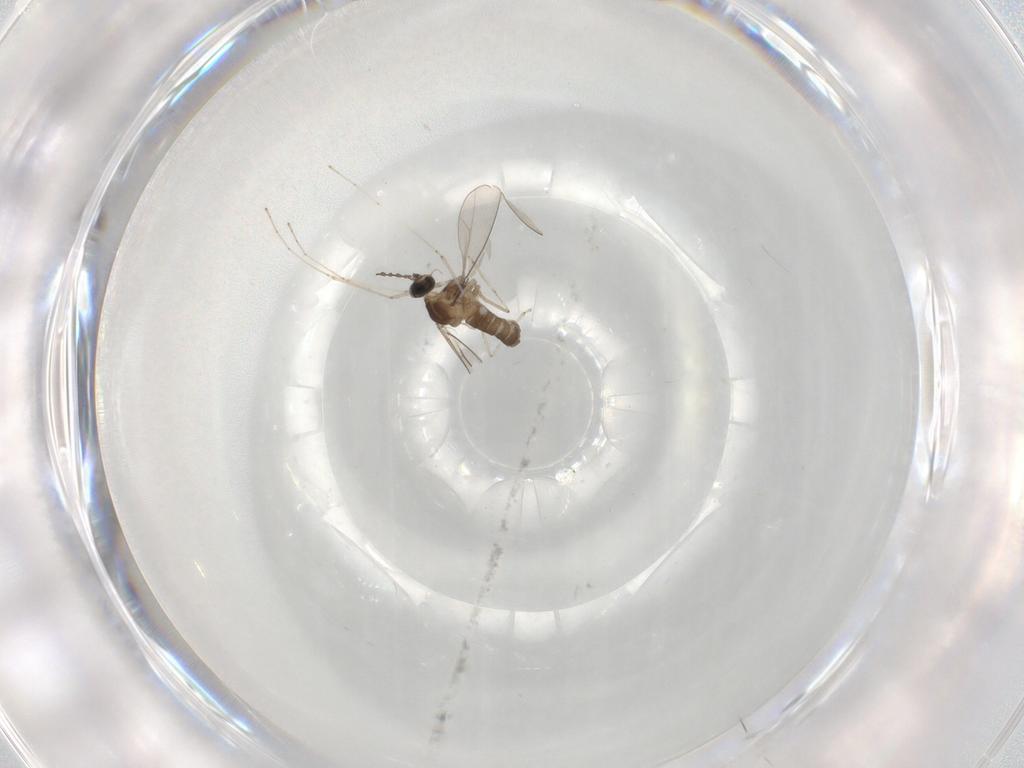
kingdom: Animalia
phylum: Arthropoda
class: Insecta
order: Diptera
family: Cecidomyiidae
